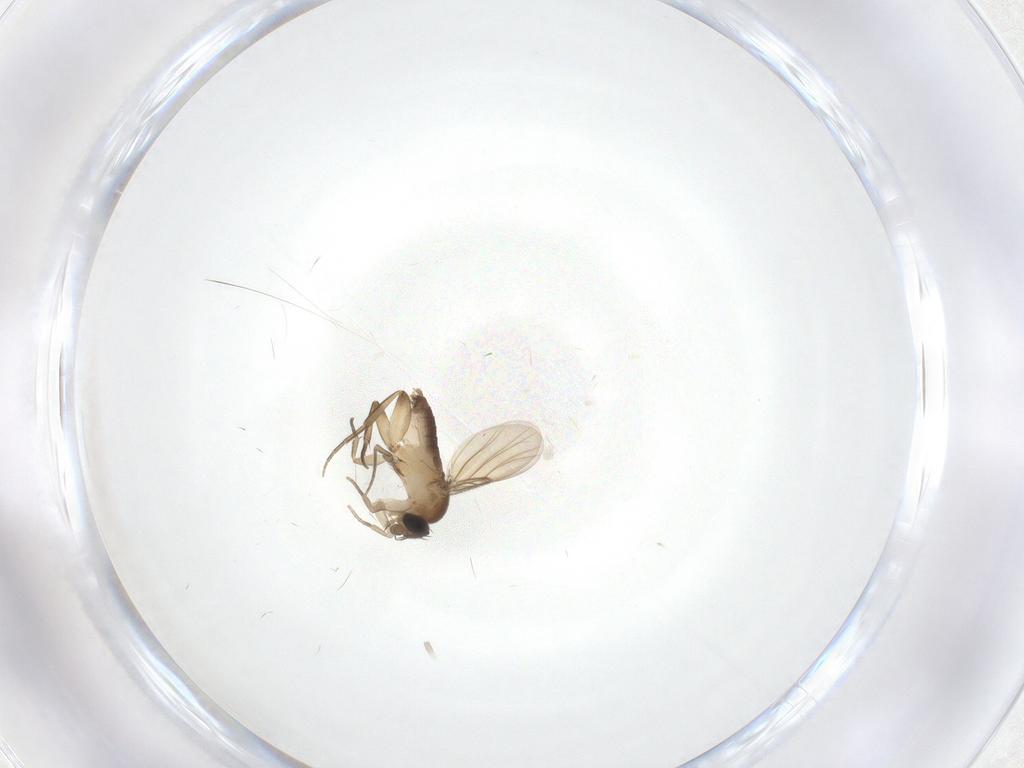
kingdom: Animalia
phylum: Arthropoda
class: Insecta
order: Diptera
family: Phoridae
